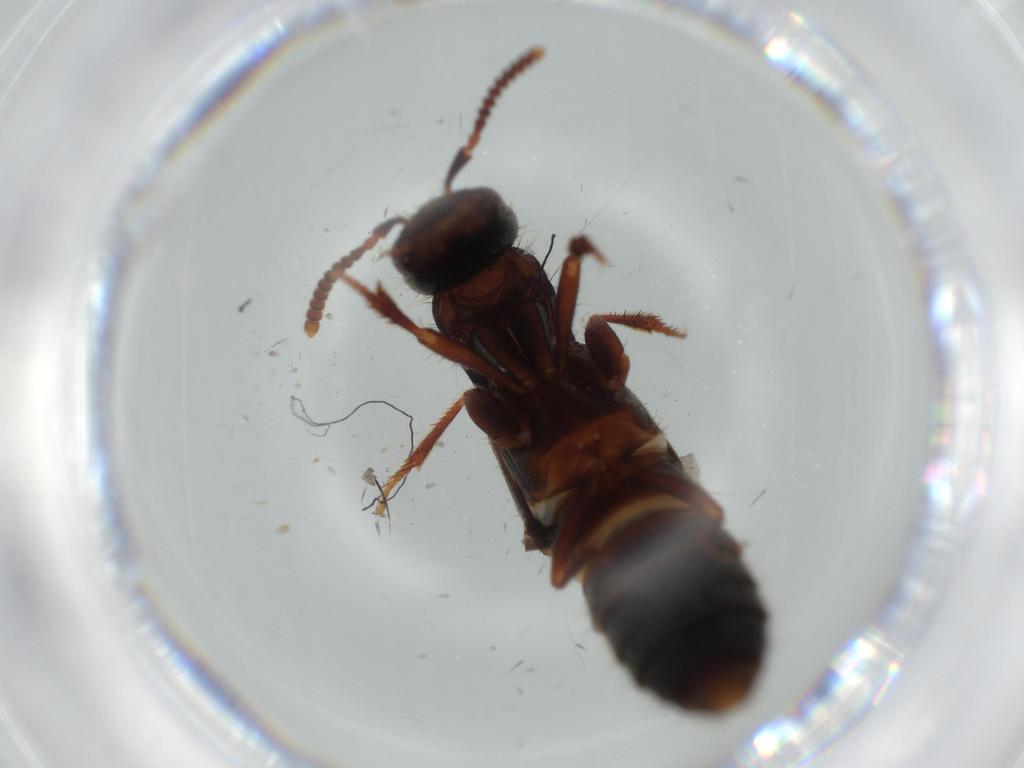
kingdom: Animalia
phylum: Arthropoda
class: Insecta
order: Coleoptera
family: Staphylinidae
